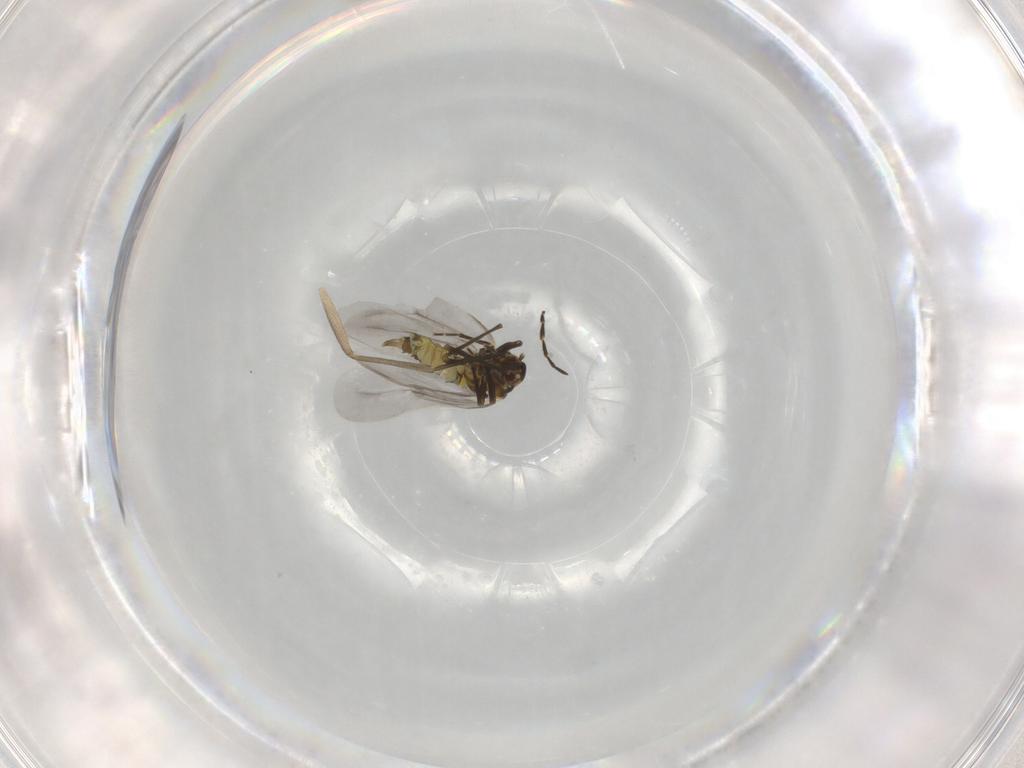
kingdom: Animalia
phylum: Arthropoda
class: Insecta
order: Diptera
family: Sciaridae
